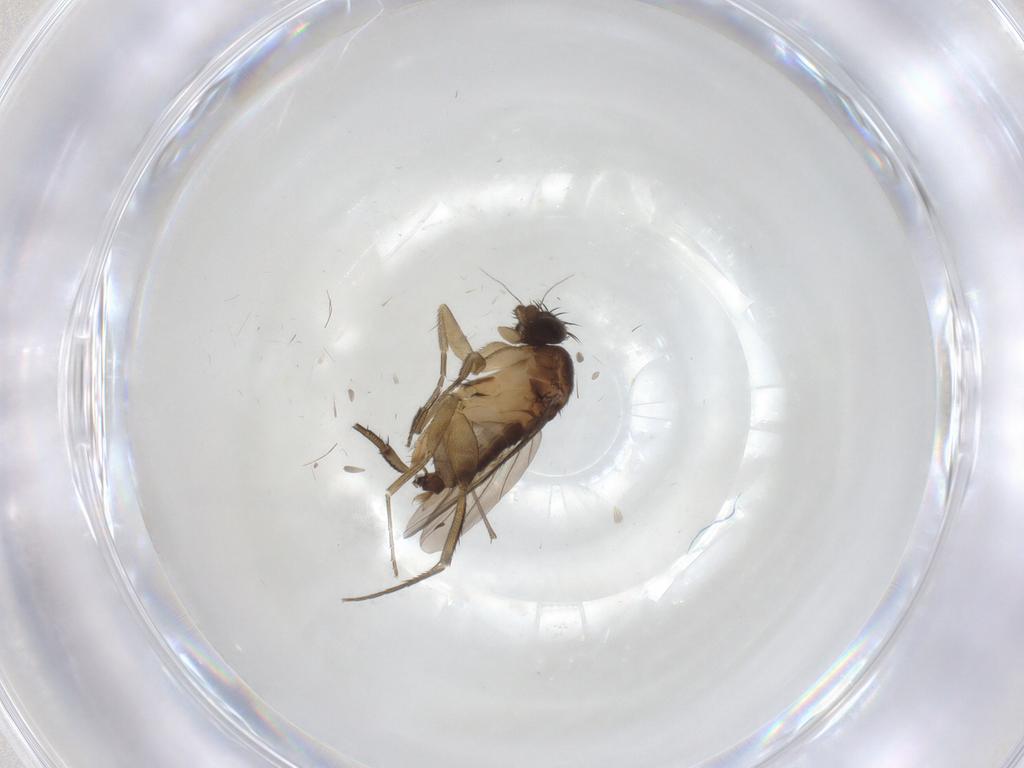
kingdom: Animalia
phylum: Arthropoda
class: Insecta
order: Diptera
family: Phoridae
